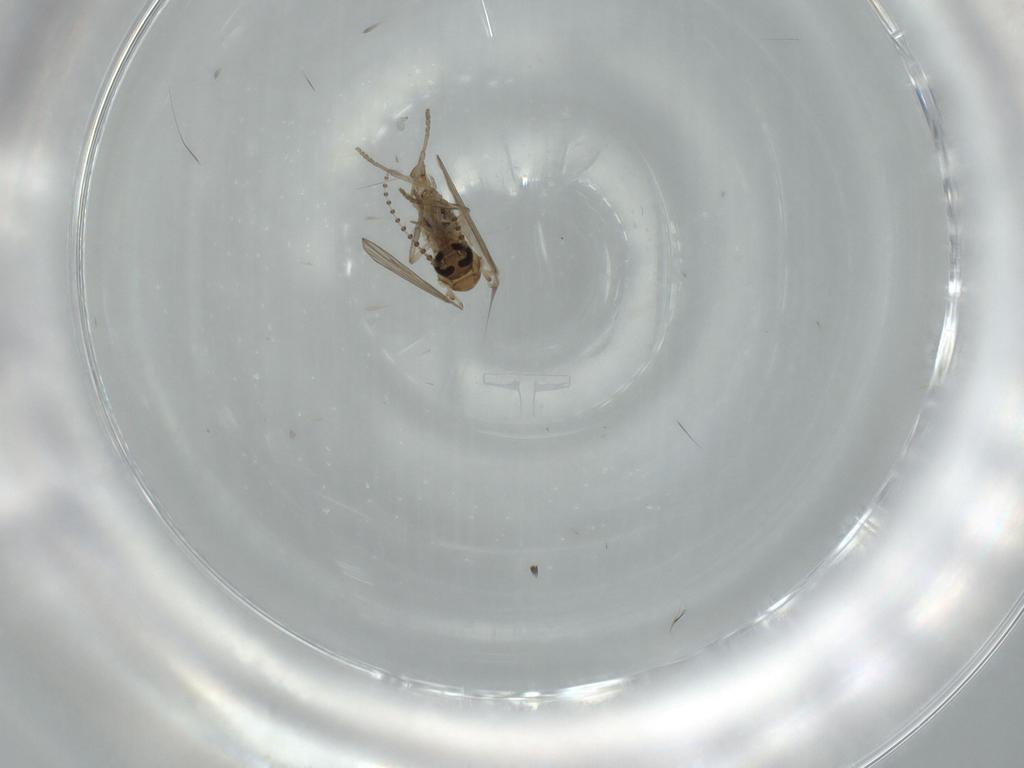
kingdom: Animalia
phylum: Arthropoda
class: Insecta
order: Diptera
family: Psychodidae
